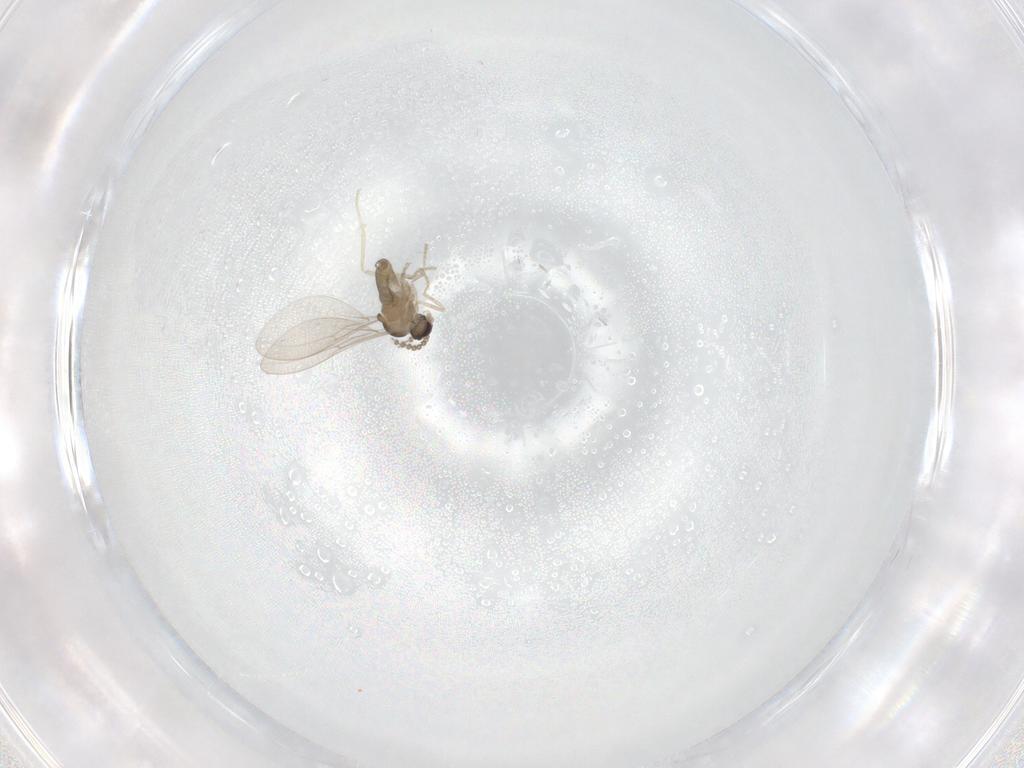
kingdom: Animalia
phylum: Arthropoda
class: Insecta
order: Diptera
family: Cecidomyiidae
